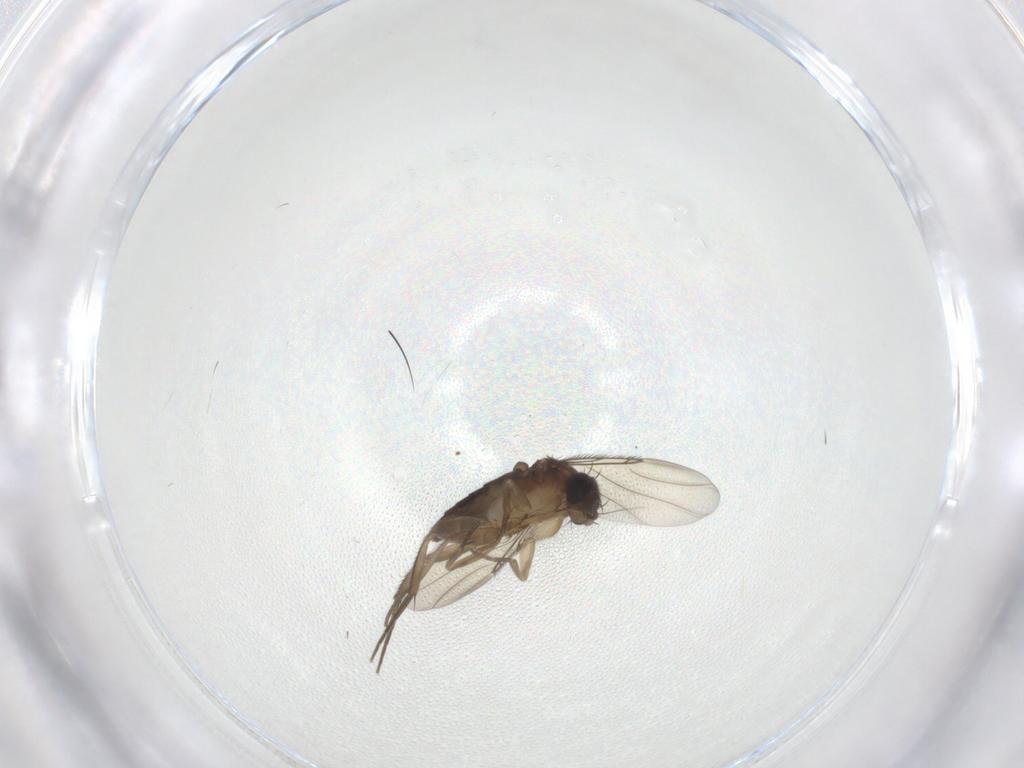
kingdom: Animalia
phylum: Arthropoda
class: Insecta
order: Diptera
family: Phoridae
